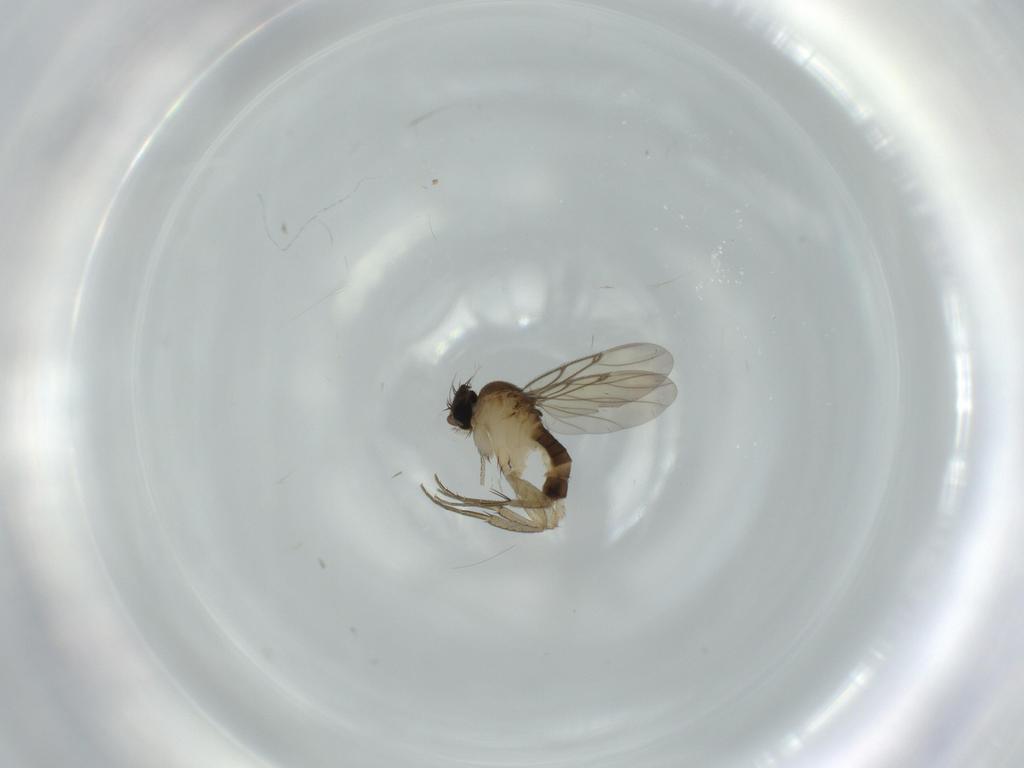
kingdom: Animalia
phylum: Arthropoda
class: Insecta
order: Diptera
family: Phoridae
